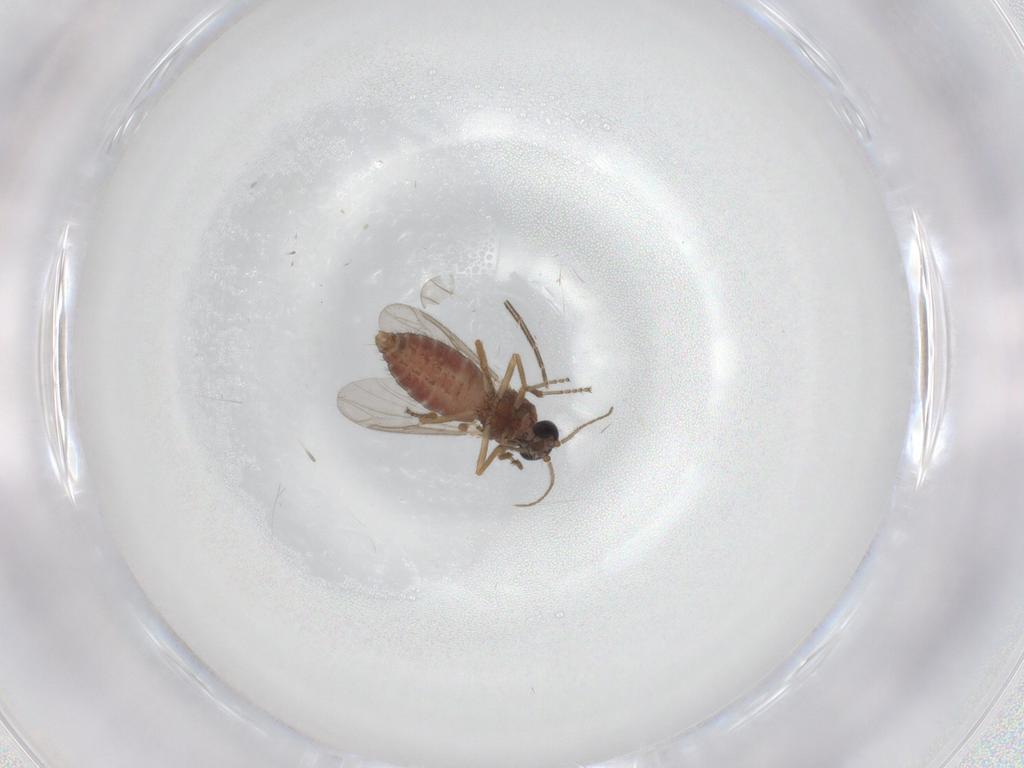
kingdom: Animalia
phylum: Arthropoda
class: Insecta
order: Diptera
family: Ceratopogonidae
